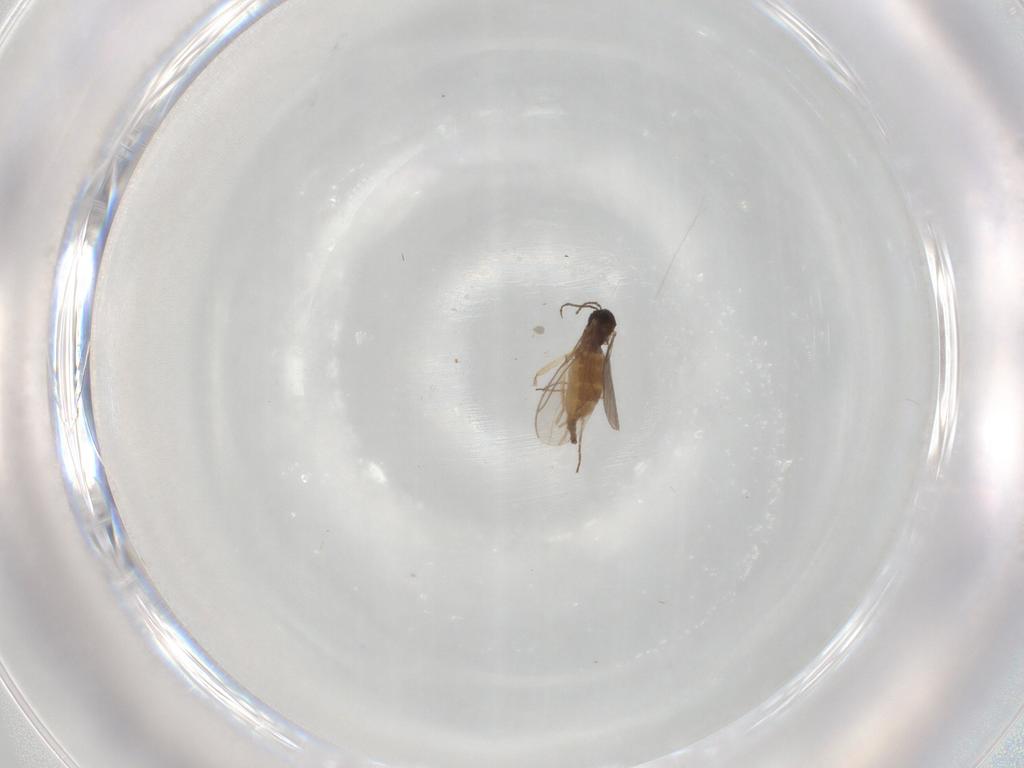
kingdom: Animalia
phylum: Arthropoda
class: Insecta
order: Diptera
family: Sciaridae
